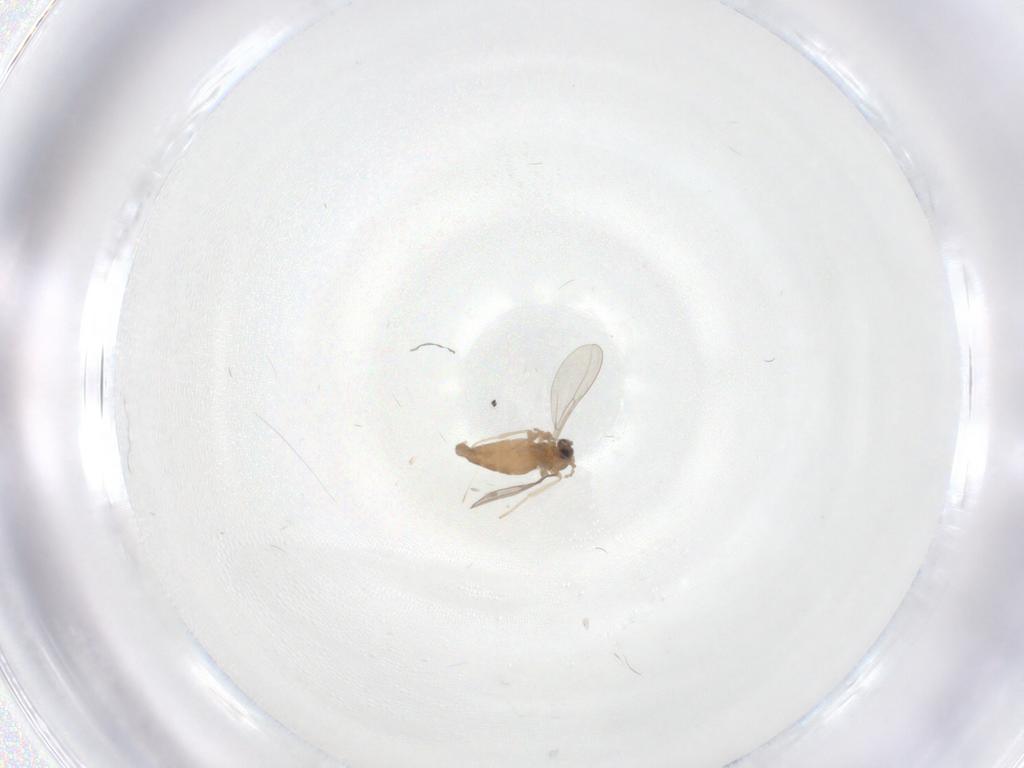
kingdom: Animalia
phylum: Arthropoda
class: Insecta
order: Diptera
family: Cecidomyiidae
